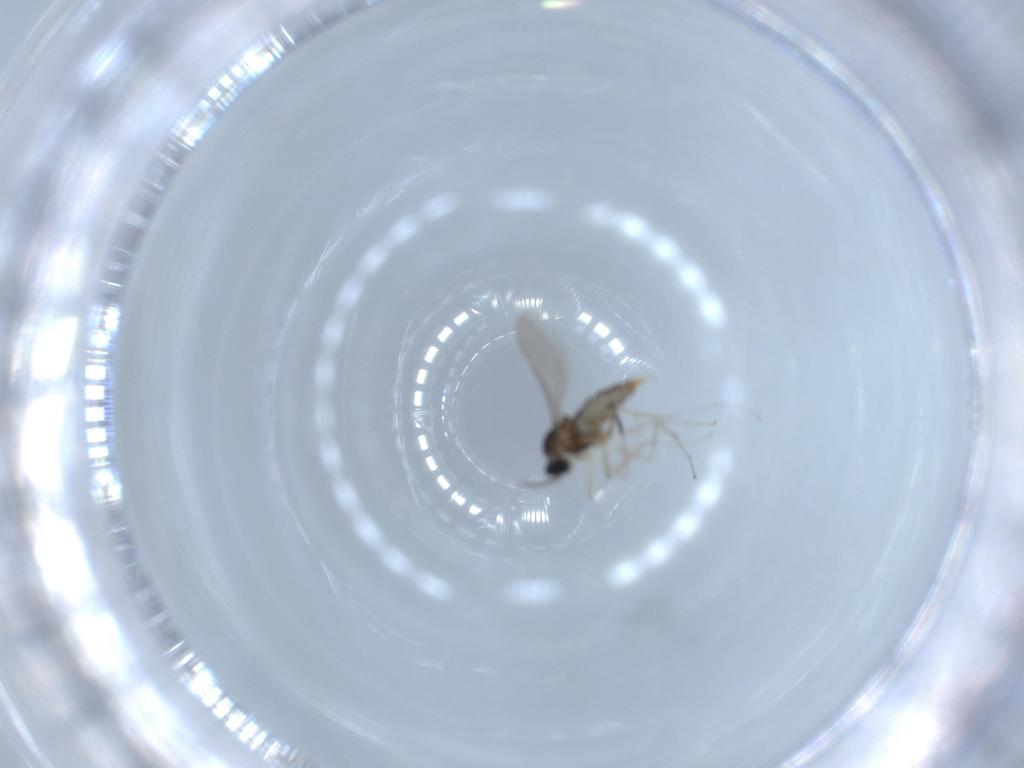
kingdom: Animalia
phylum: Arthropoda
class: Insecta
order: Diptera
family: Cecidomyiidae
